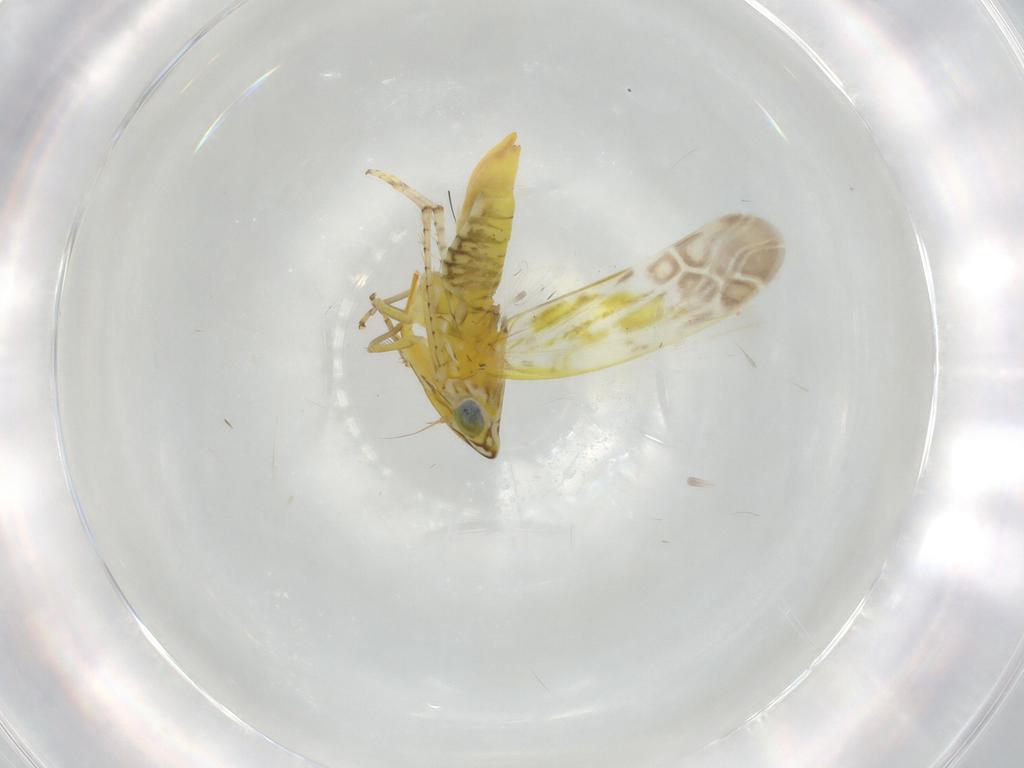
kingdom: Animalia
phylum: Arthropoda
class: Insecta
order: Hemiptera
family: Cicadellidae
